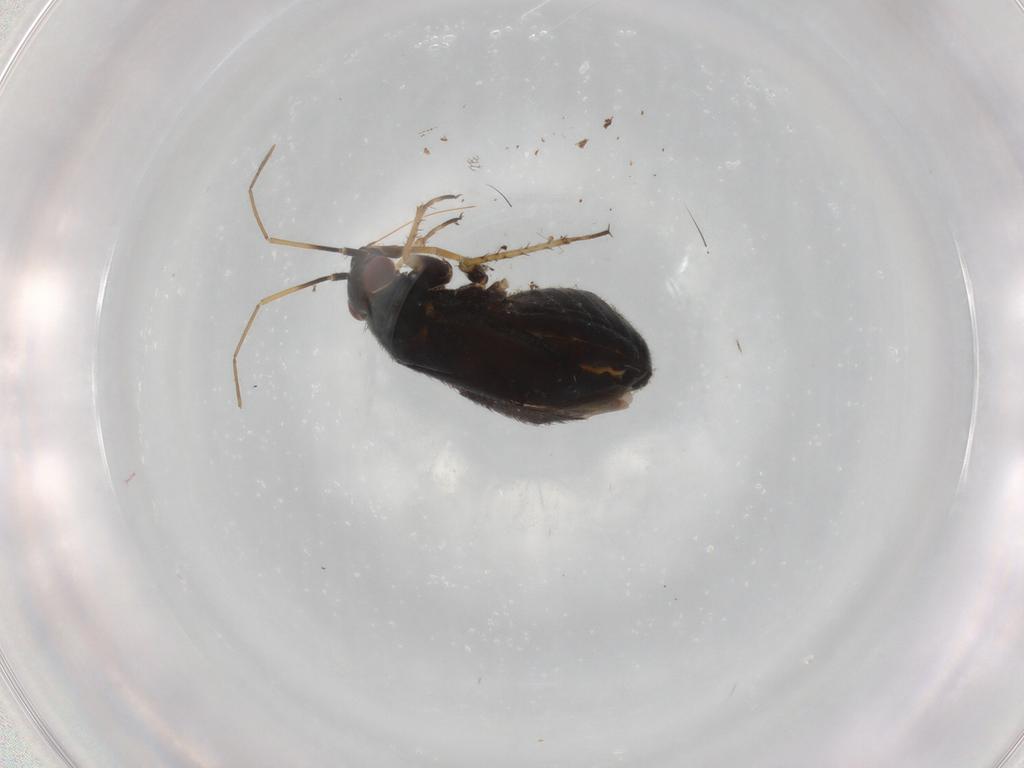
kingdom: Animalia
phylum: Arthropoda
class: Insecta
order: Hemiptera
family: Miridae
